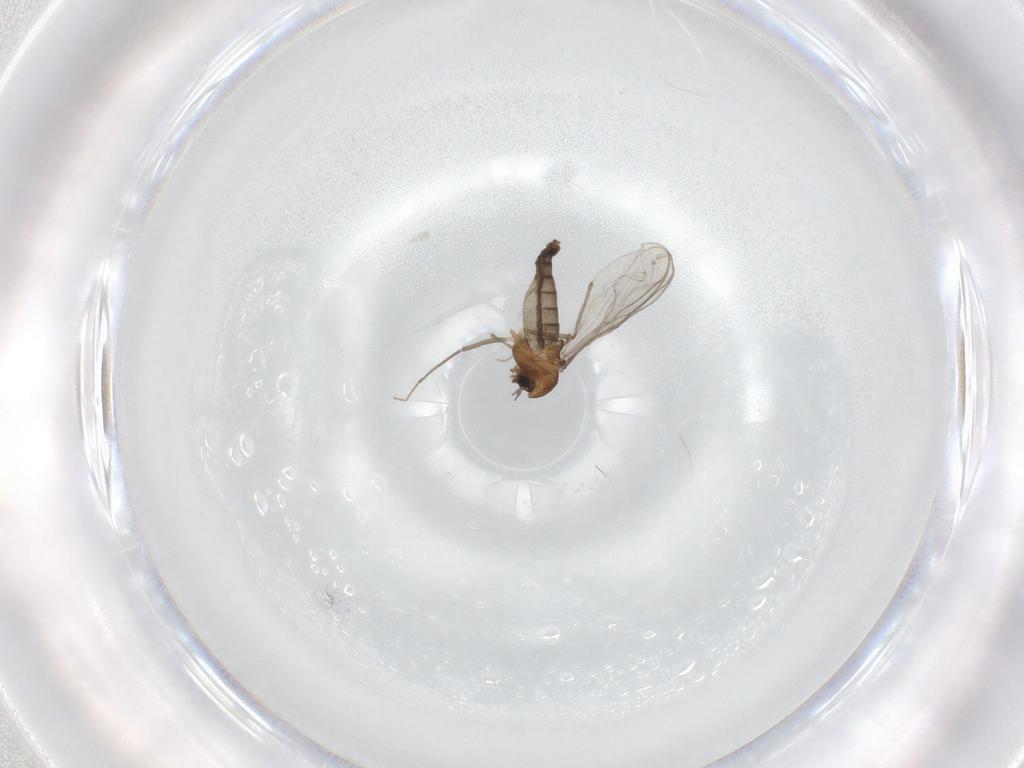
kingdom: Animalia
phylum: Arthropoda
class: Insecta
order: Diptera
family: Chironomidae
